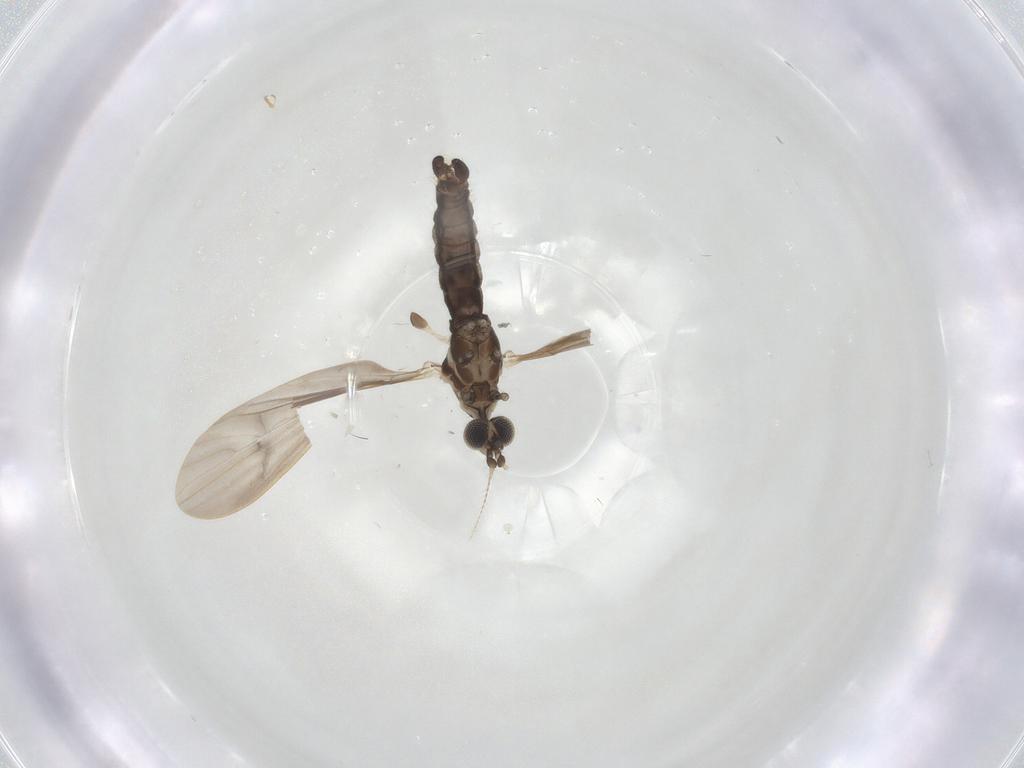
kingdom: Animalia
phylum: Arthropoda
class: Insecta
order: Diptera
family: Limoniidae
